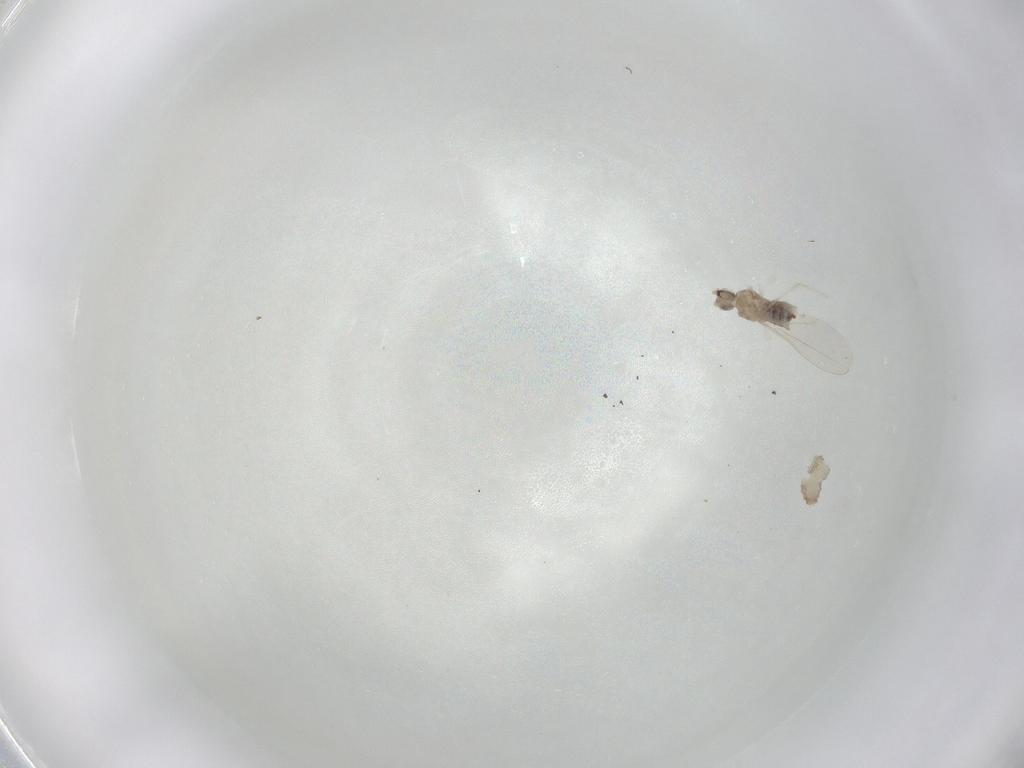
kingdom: Animalia
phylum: Arthropoda
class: Insecta
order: Diptera
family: Cecidomyiidae
